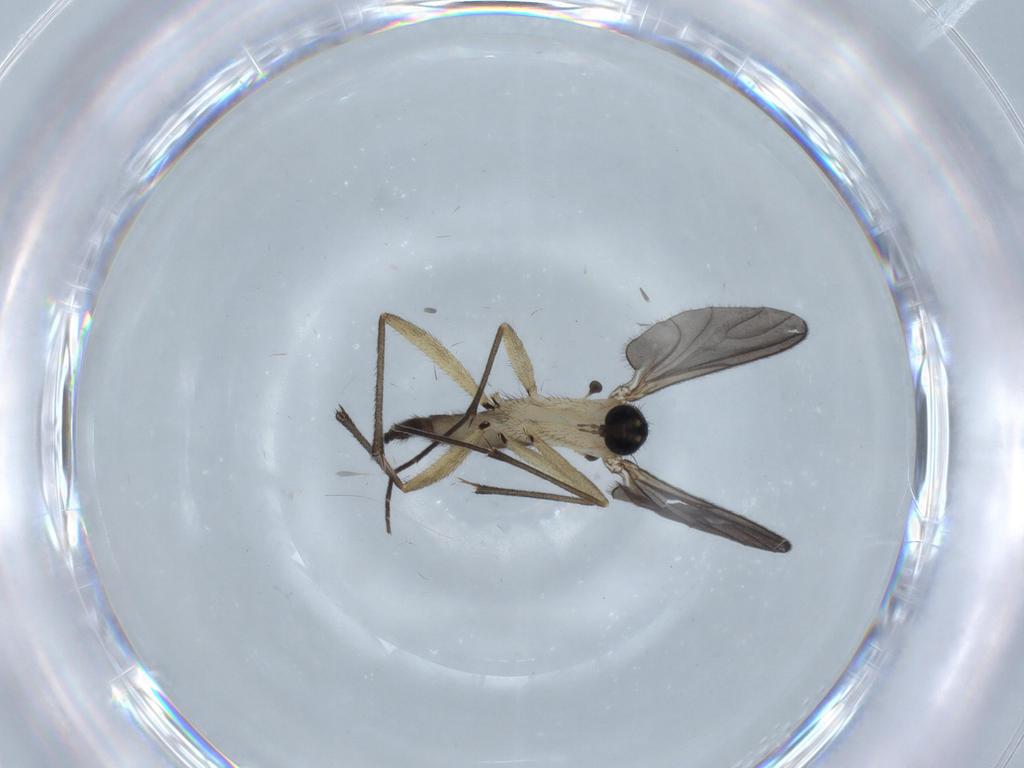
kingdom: Animalia
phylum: Arthropoda
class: Insecta
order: Diptera
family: Sciaridae
